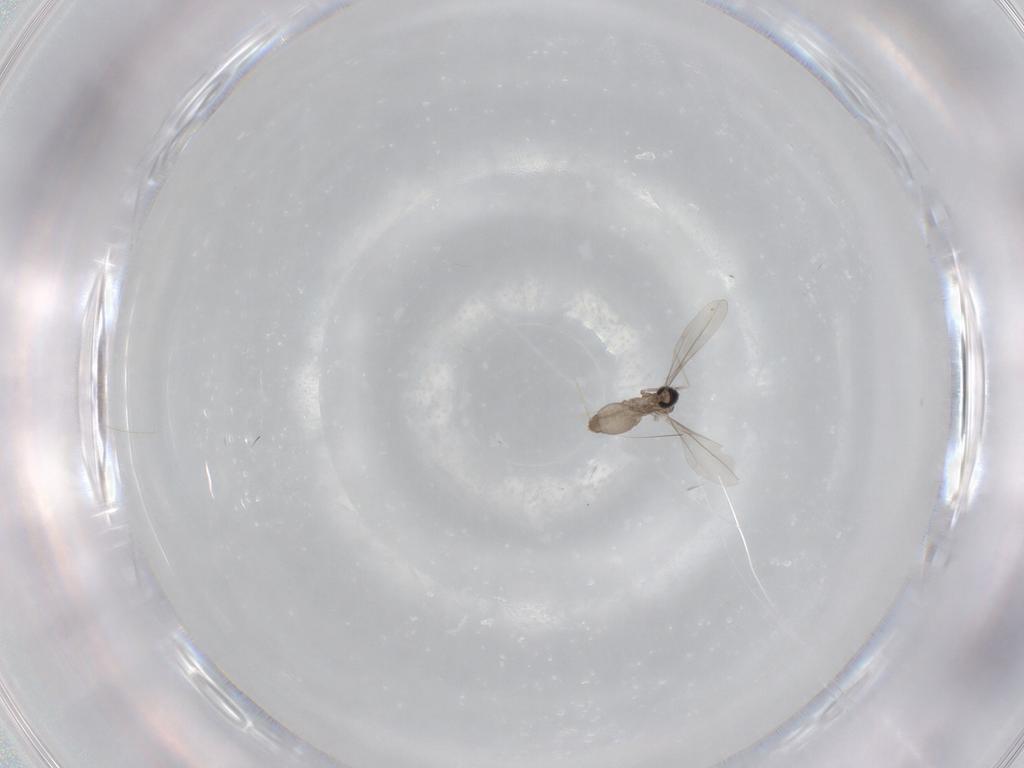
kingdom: Animalia
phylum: Arthropoda
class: Insecta
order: Diptera
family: Cecidomyiidae
